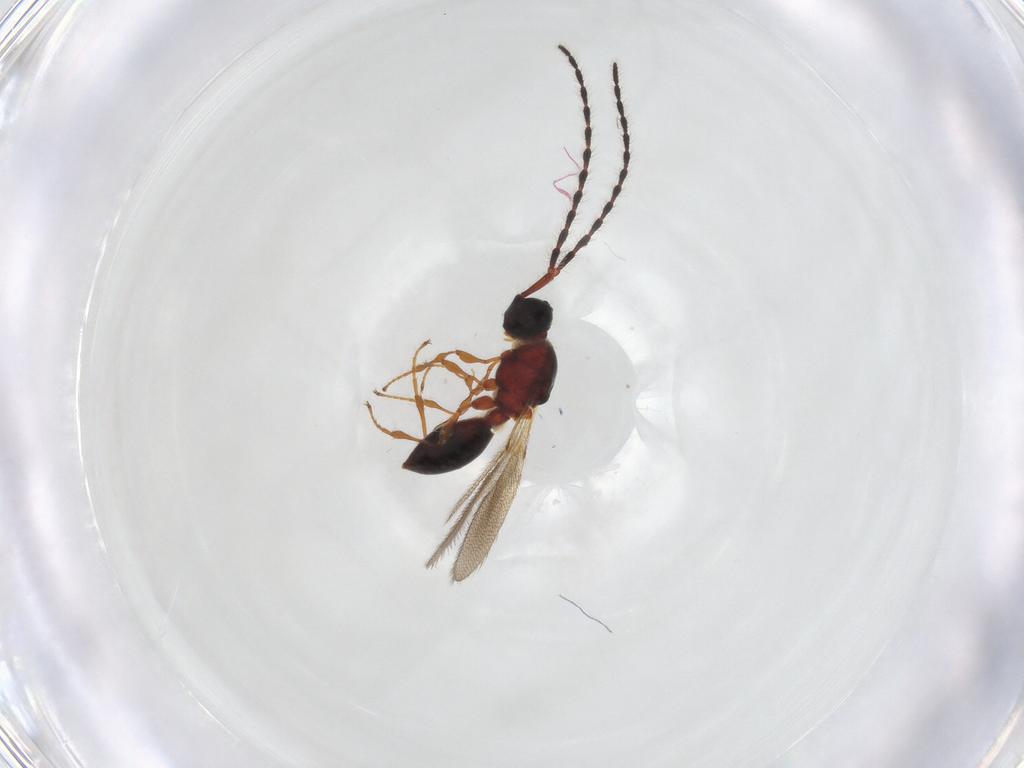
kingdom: Animalia
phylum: Arthropoda
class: Insecta
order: Hymenoptera
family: Diapriidae
